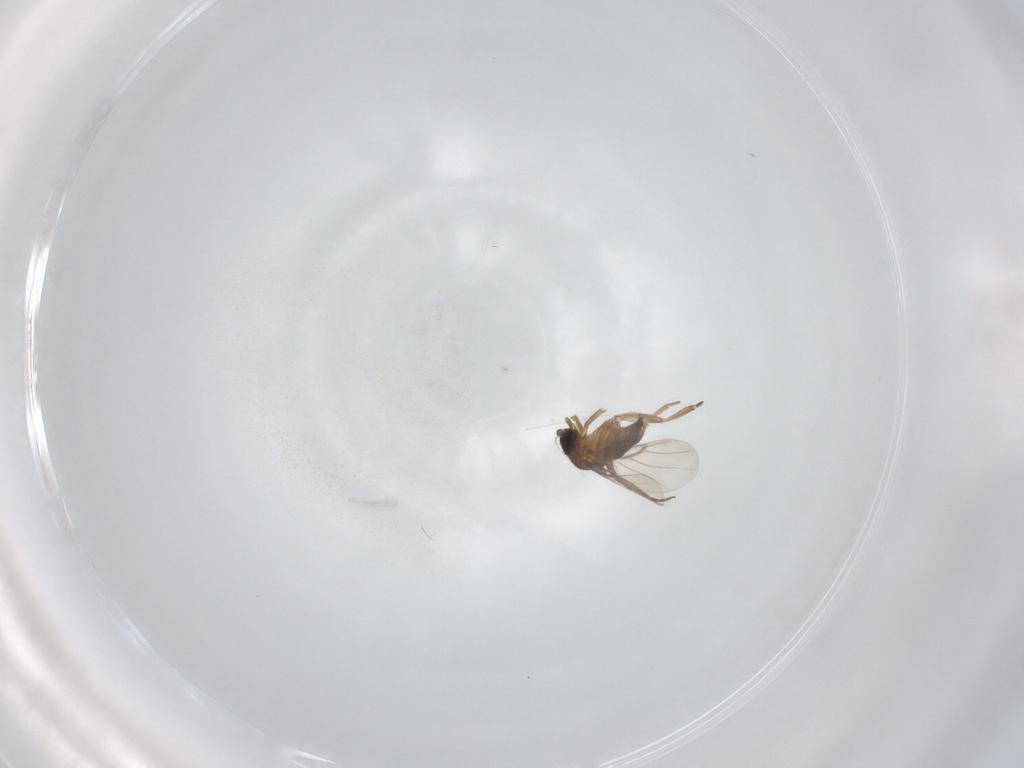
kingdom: Animalia
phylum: Arthropoda
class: Insecta
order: Diptera
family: Phoridae
